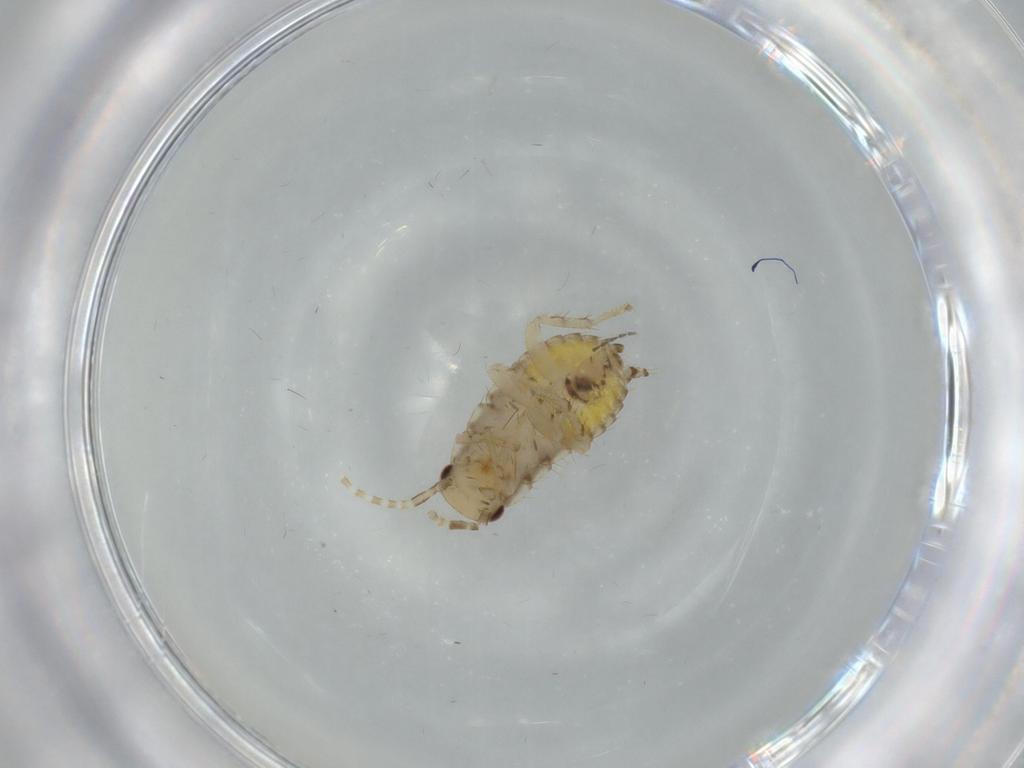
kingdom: Animalia
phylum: Arthropoda
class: Insecta
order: Blattodea
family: Ectobiidae
